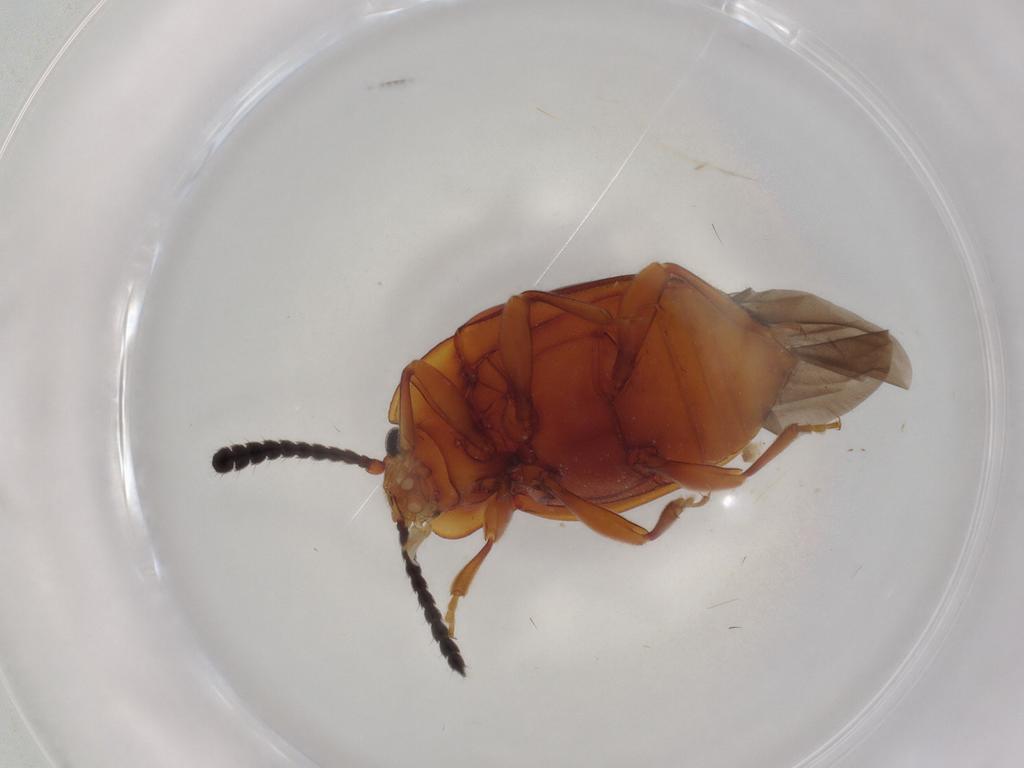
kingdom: Animalia
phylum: Arthropoda
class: Insecta
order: Coleoptera
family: Endomychidae
